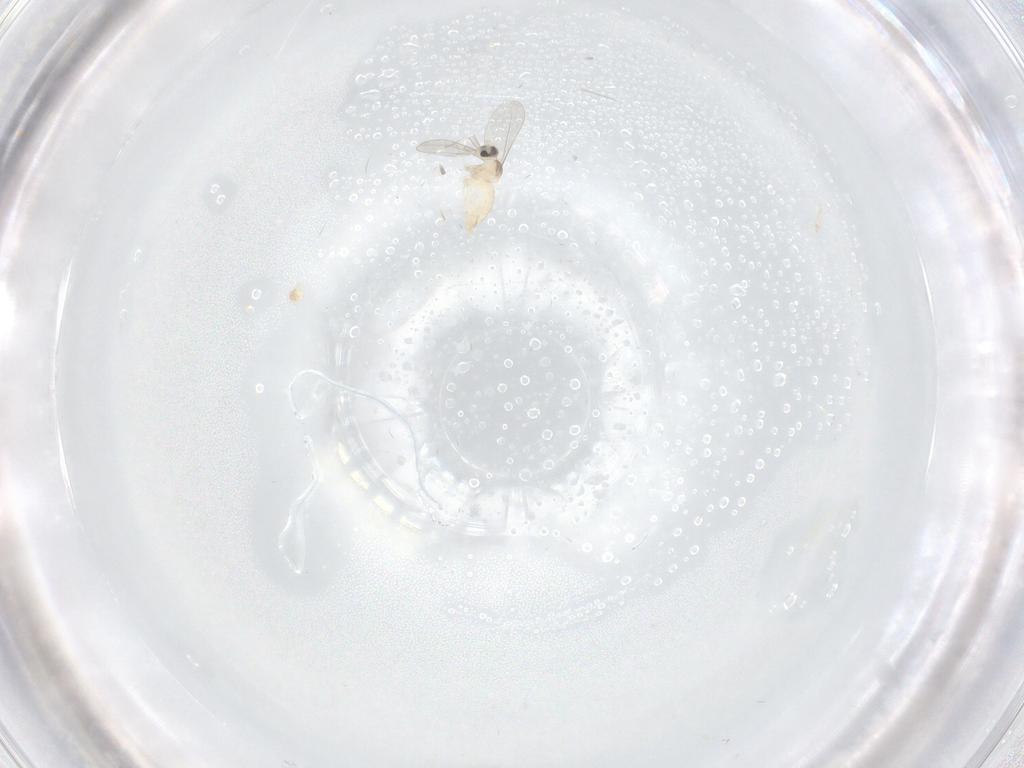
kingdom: Animalia
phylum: Arthropoda
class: Insecta
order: Diptera
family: Cecidomyiidae
